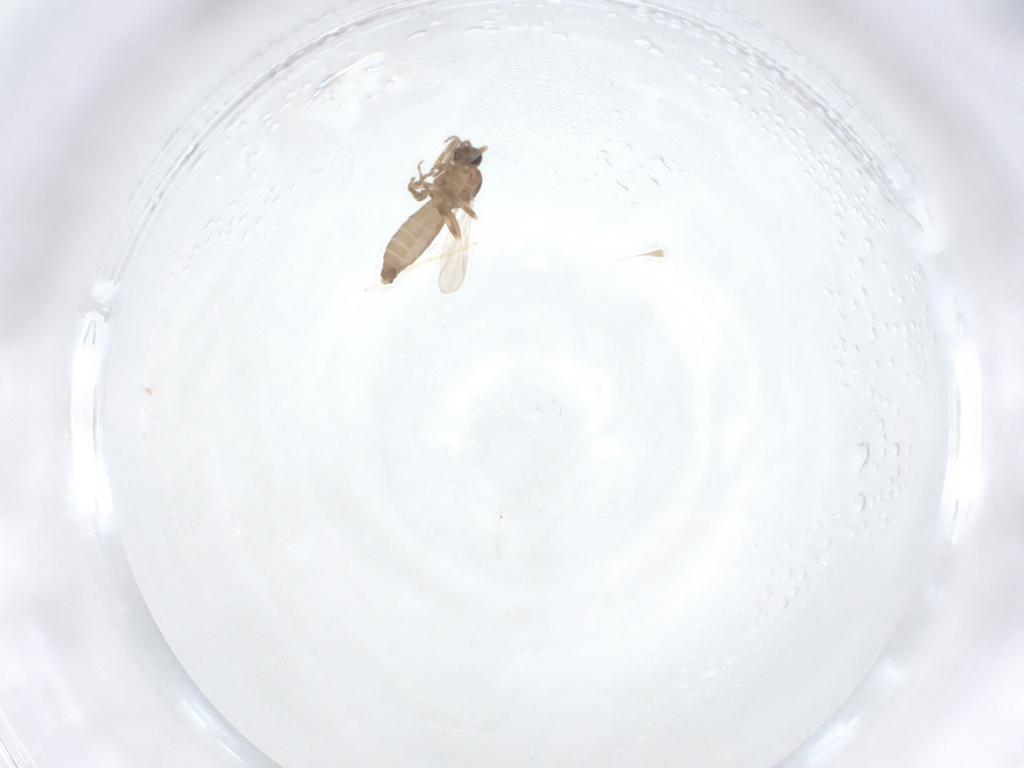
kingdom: Animalia
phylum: Arthropoda
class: Insecta
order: Diptera
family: Ceratopogonidae
